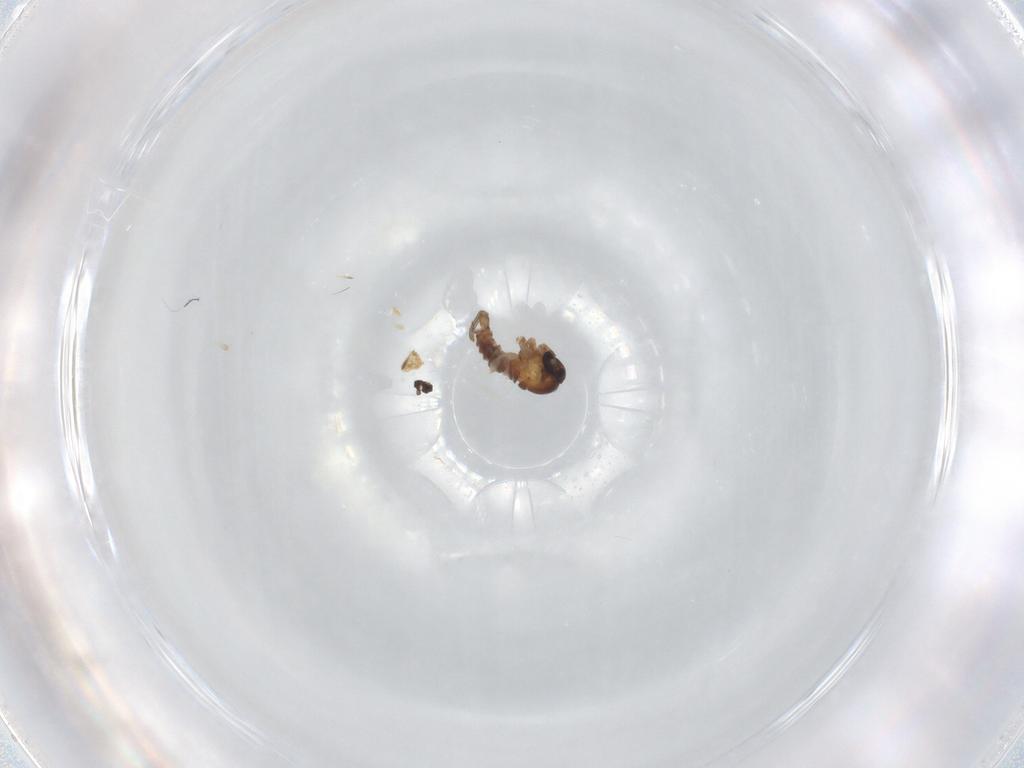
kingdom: Animalia
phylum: Arthropoda
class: Insecta
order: Diptera
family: Psychodidae
